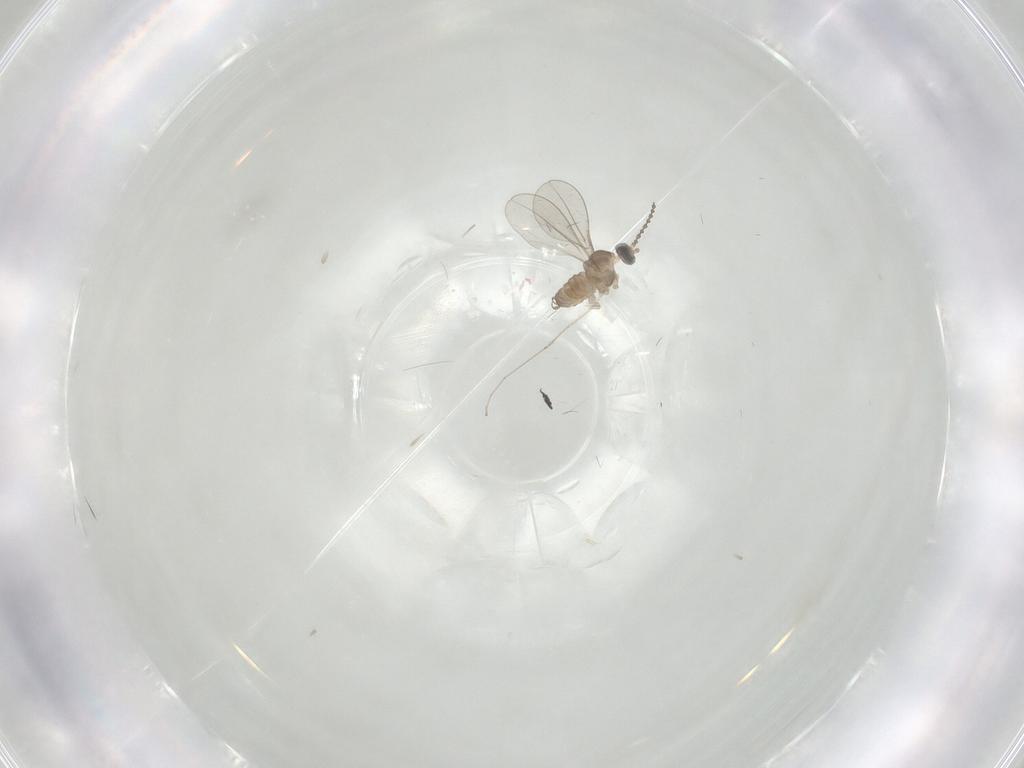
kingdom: Animalia
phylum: Arthropoda
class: Insecta
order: Diptera
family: Cecidomyiidae
